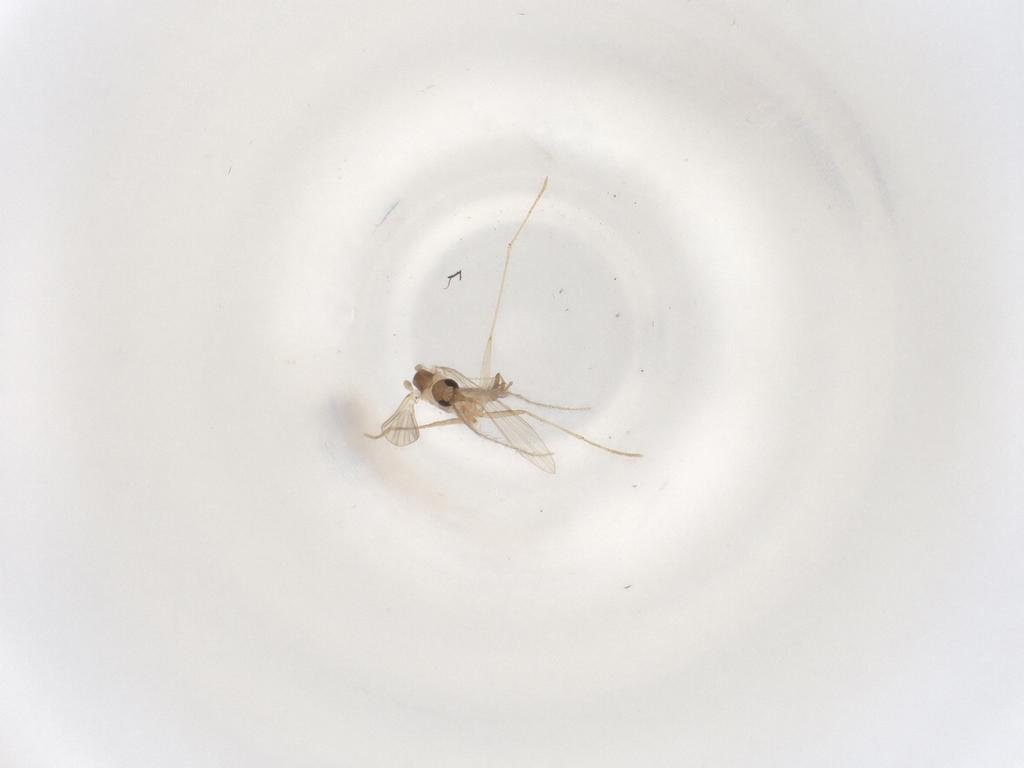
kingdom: Animalia
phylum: Arthropoda
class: Insecta
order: Diptera
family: Psychodidae
